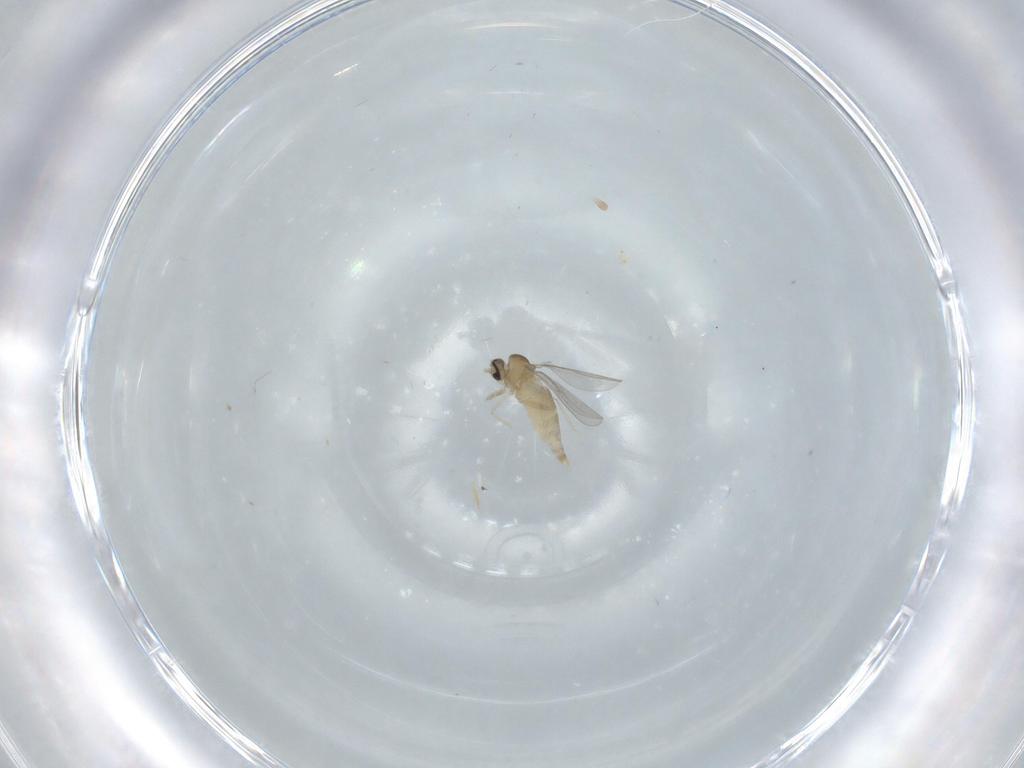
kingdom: Animalia
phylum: Arthropoda
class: Insecta
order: Diptera
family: Cecidomyiidae
